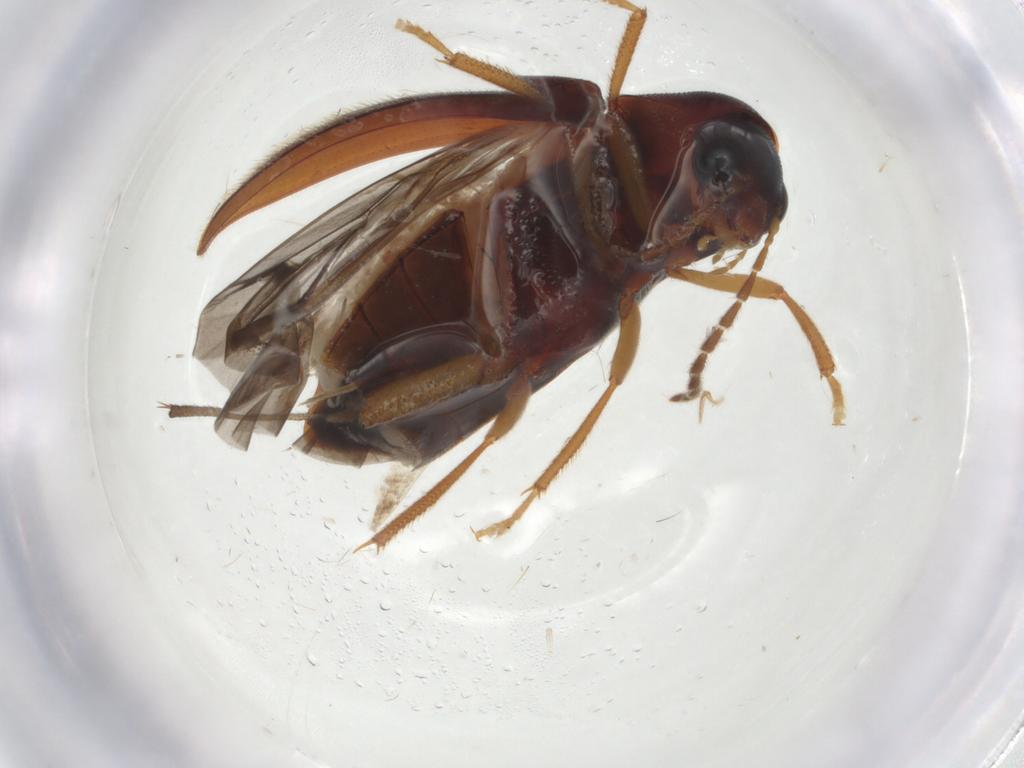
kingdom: Animalia
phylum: Arthropoda
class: Insecta
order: Coleoptera
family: Ptilodactylidae
